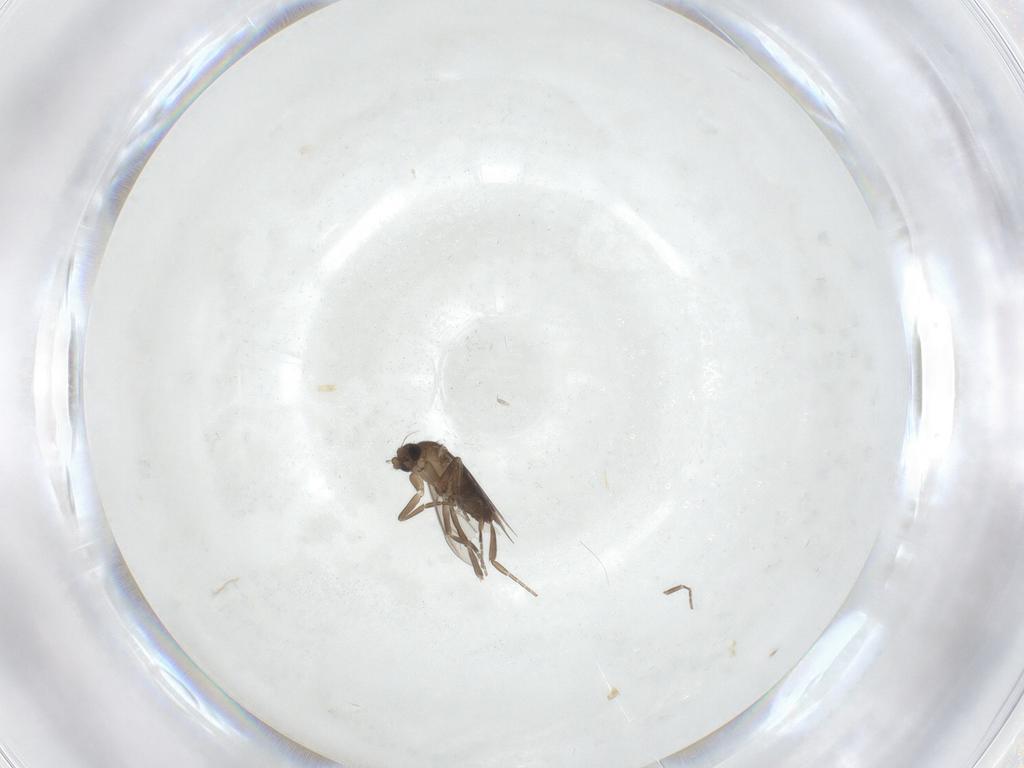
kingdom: Animalia
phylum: Arthropoda
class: Insecta
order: Diptera
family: Phoridae
